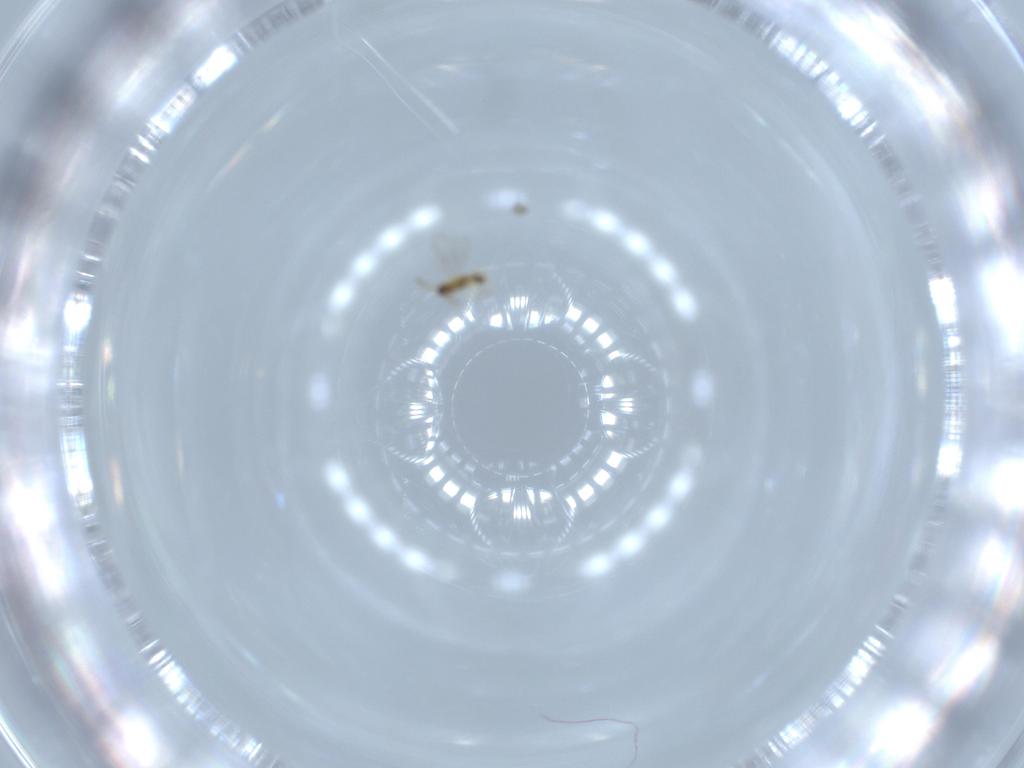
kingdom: Animalia
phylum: Arthropoda
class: Insecta
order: Hymenoptera
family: Aphelinidae
